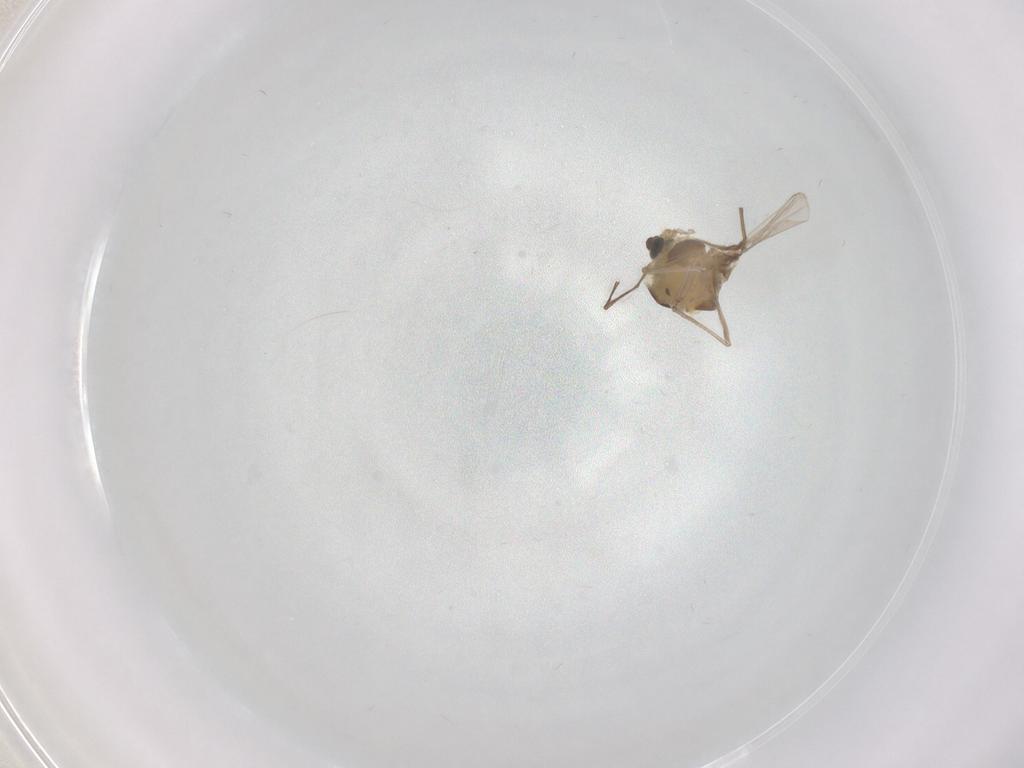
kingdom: Animalia
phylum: Arthropoda
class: Insecta
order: Diptera
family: Chironomidae
